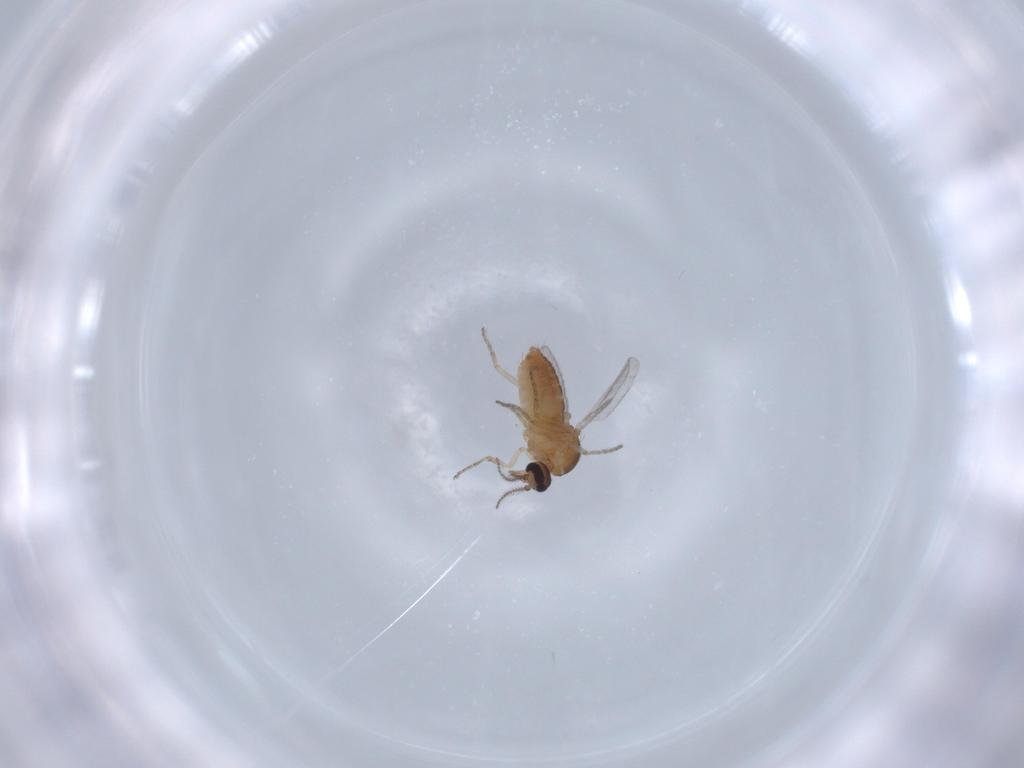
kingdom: Animalia
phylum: Arthropoda
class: Insecta
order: Diptera
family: Ceratopogonidae
